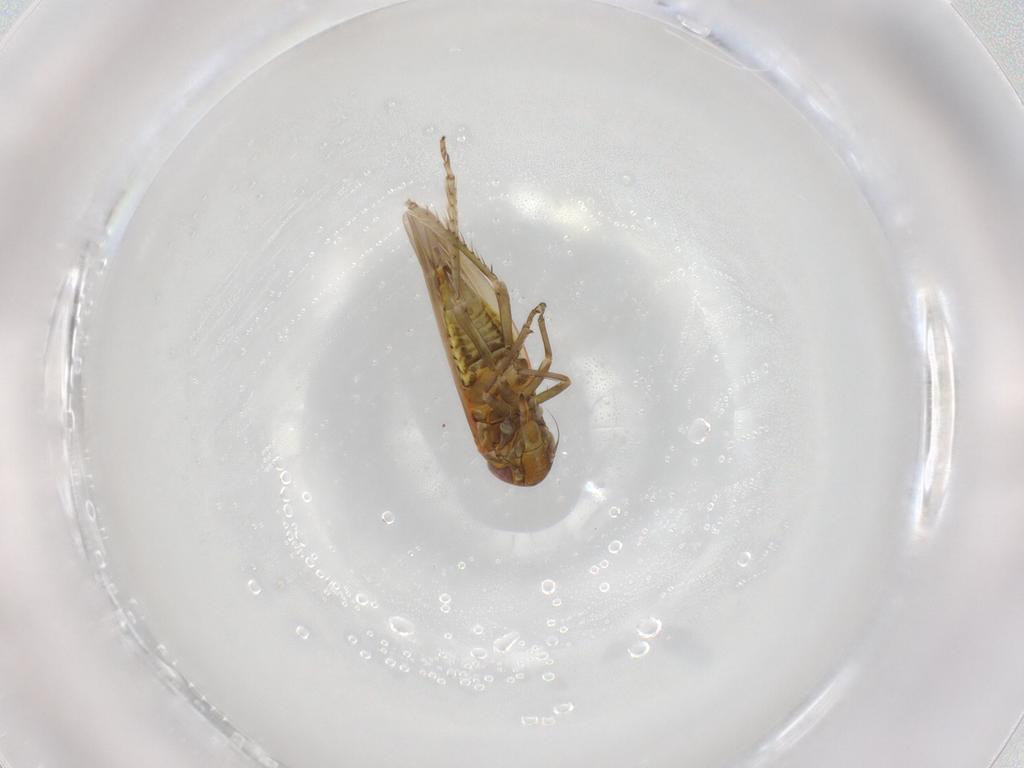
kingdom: Animalia
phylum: Arthropoda
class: Insecta
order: Hemiptera
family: Cicadellidae
